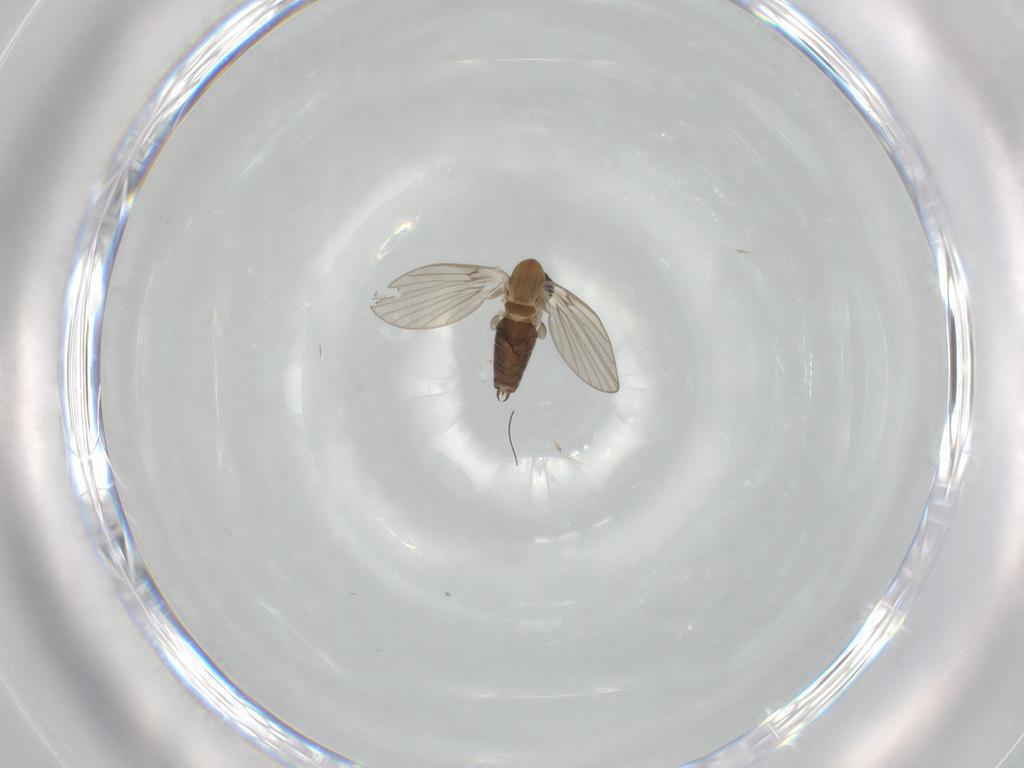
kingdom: Animalia
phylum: Arthropoda
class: Insecta
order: Diptera
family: Psychodidae
